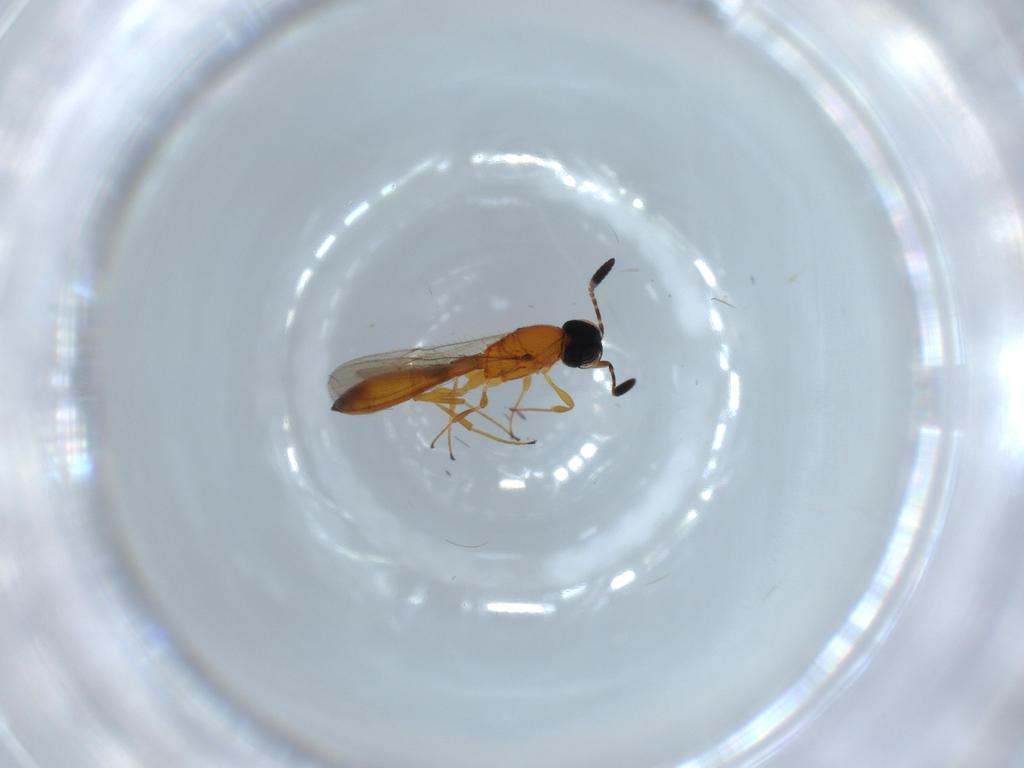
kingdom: Animalia
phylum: Arthropoda
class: Insecta
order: Hymenoptera
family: Scelionidae
